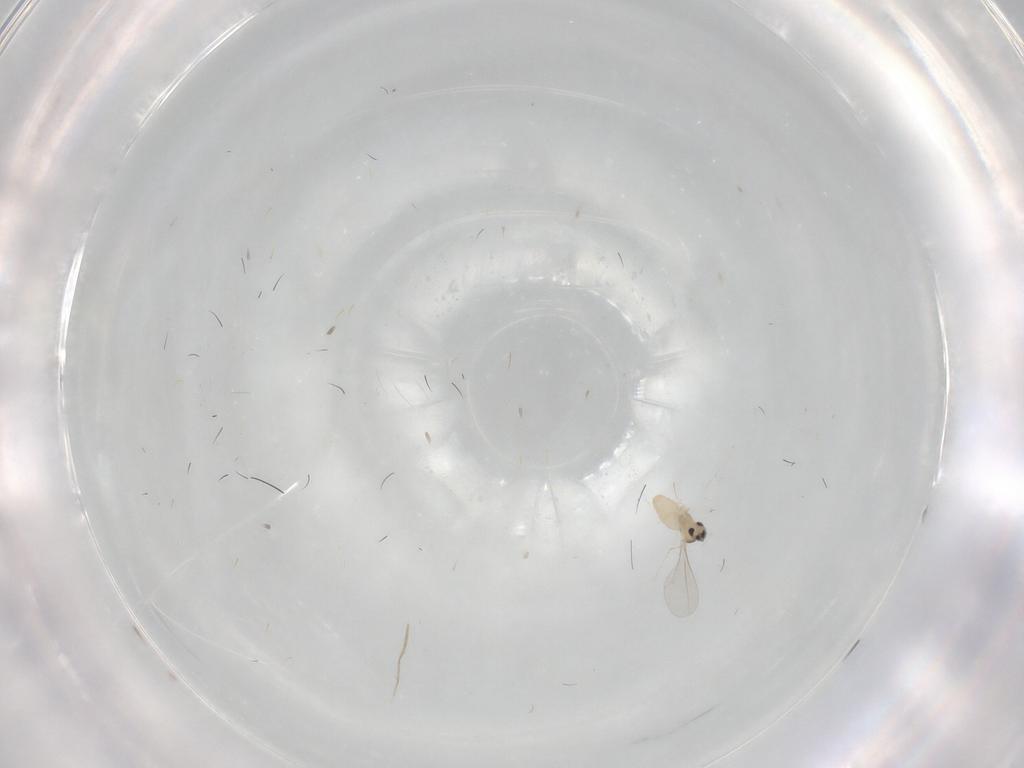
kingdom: Animalia
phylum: Arthropoda
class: Insecta
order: Diptera
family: Cecidomyiidae
